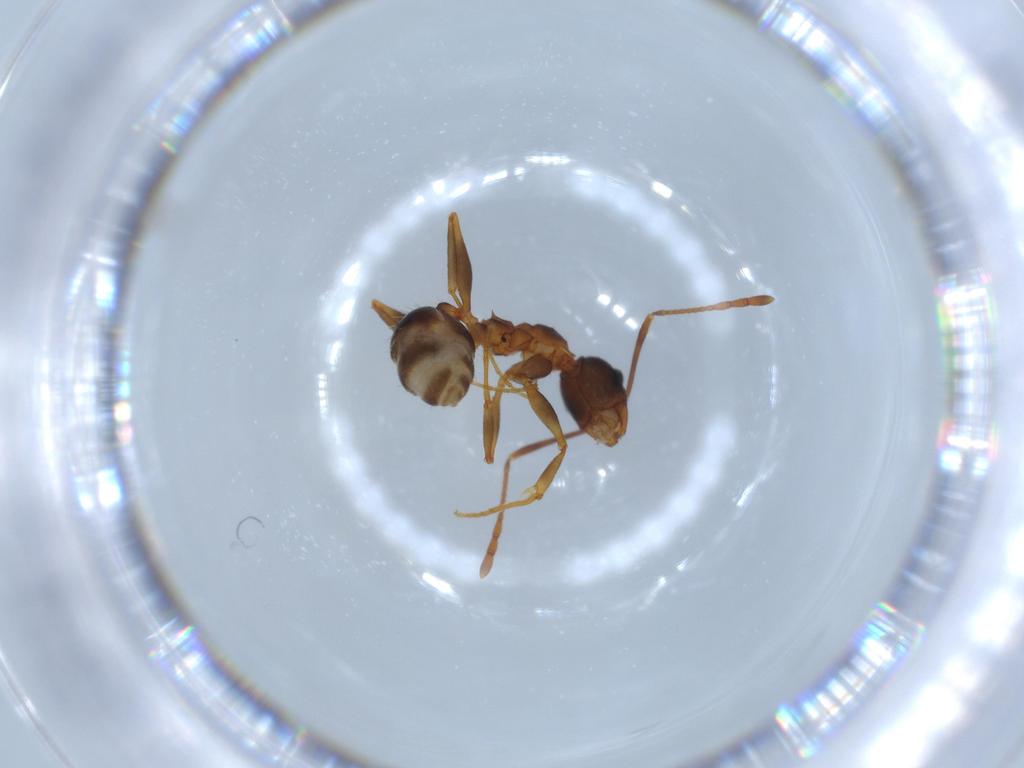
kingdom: Animalia
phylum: Arthropoda
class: Insecta
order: Hymenoptera
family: Formicidae
